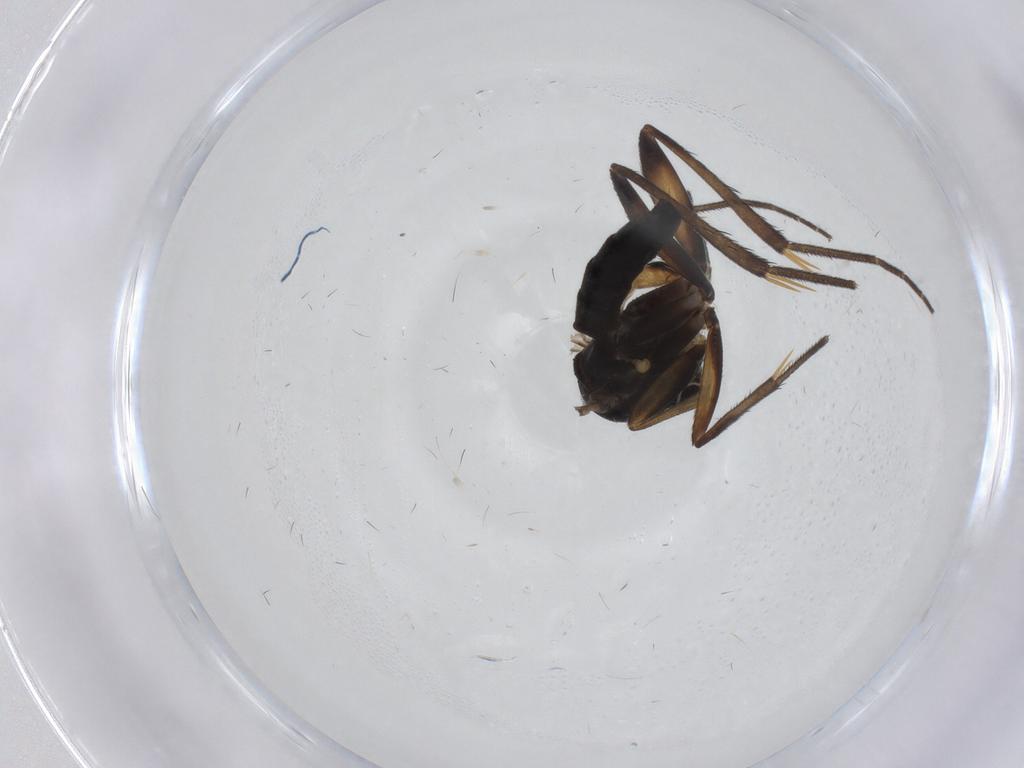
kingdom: Animalia
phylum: Arthropoda
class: Insecta
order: Diptera
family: Mycetophilidae
